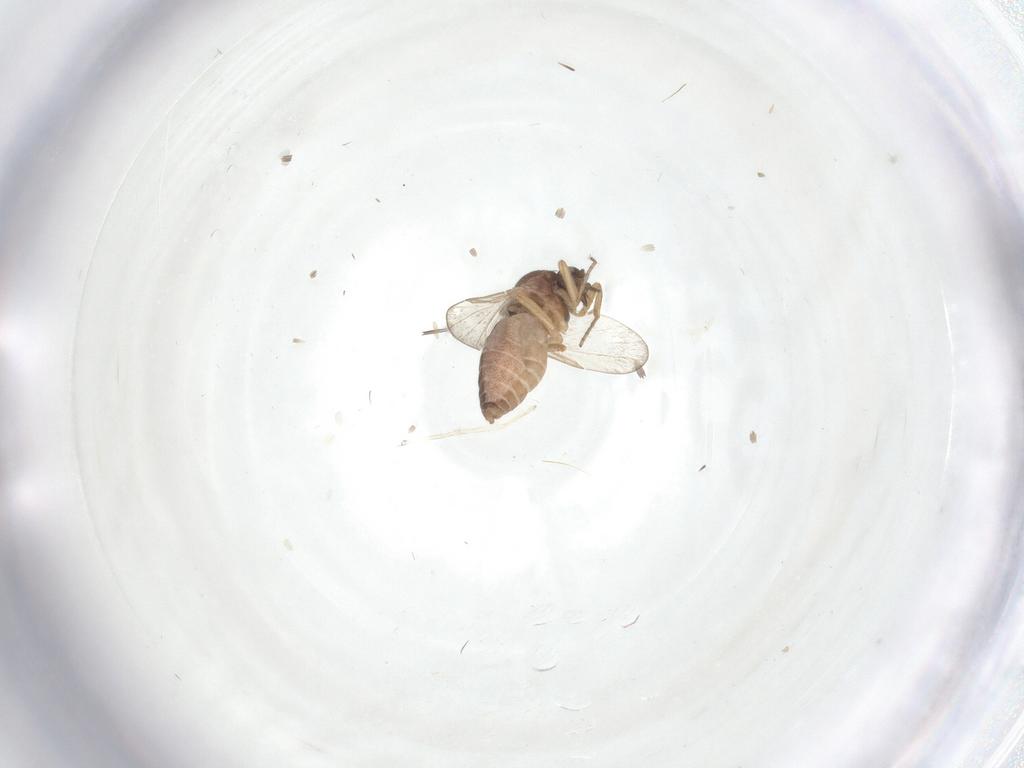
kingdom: Animalia
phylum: Arthropoda
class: Insecta
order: Diptera
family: Ceratopogonidae
